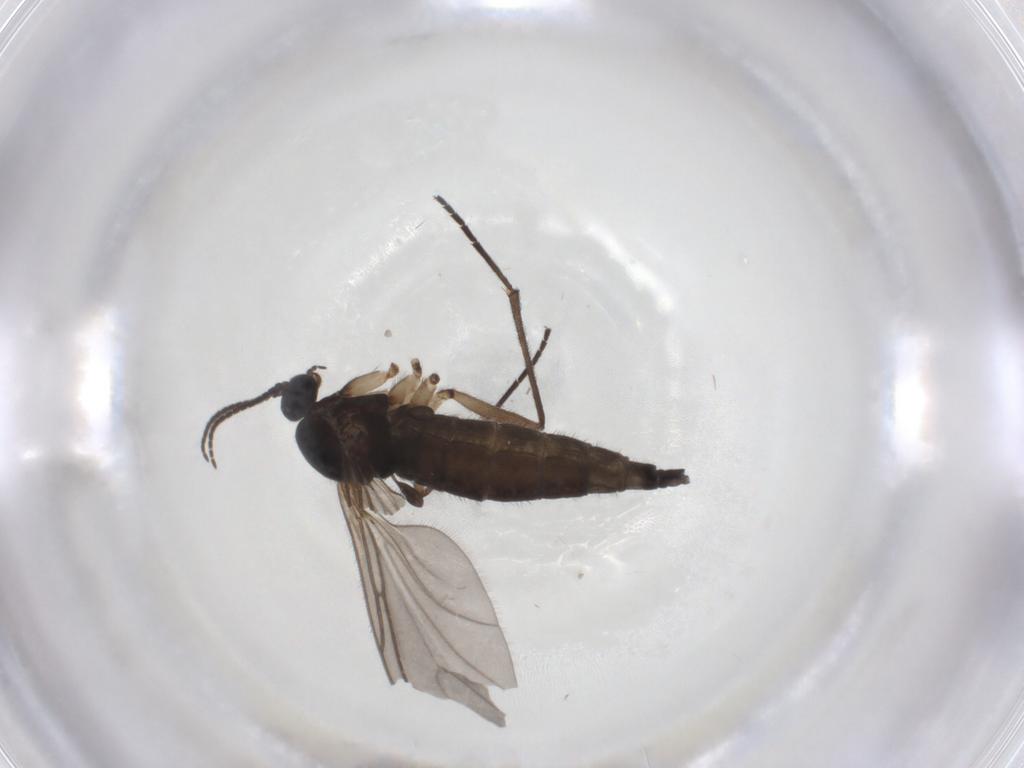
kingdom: Animalia
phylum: Arthropoda
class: Insecta
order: Diptera
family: Sciaridae
